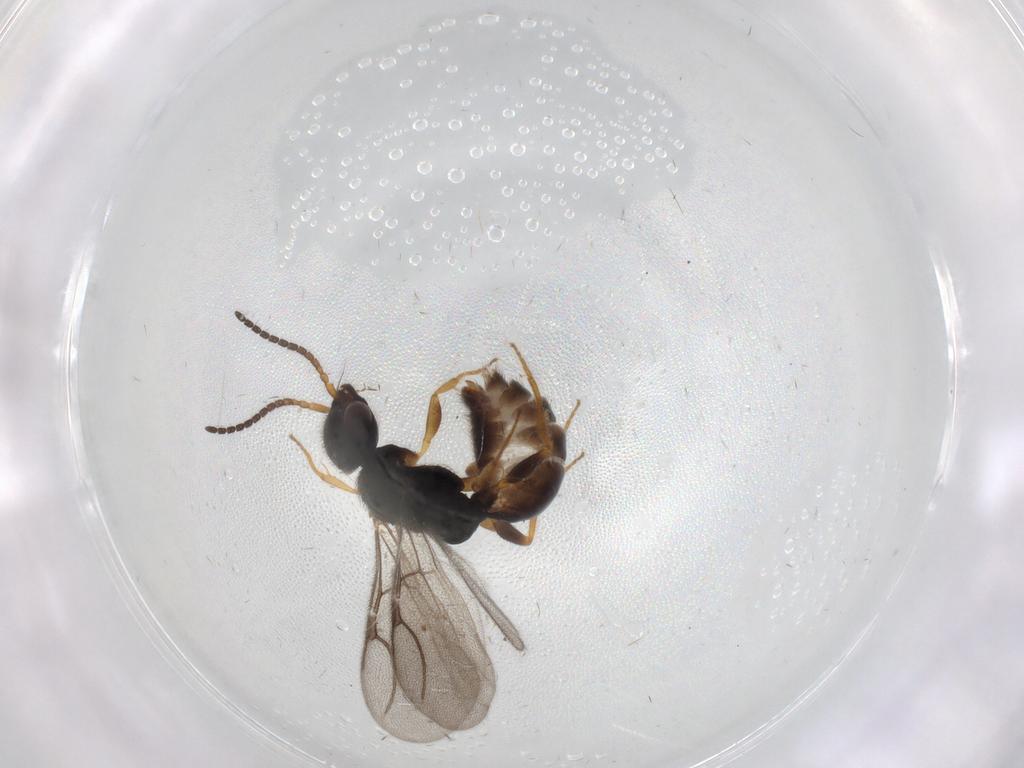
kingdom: Animalia
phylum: Arthropoda
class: Insecta
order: Hymenoptera
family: Bethylidae
